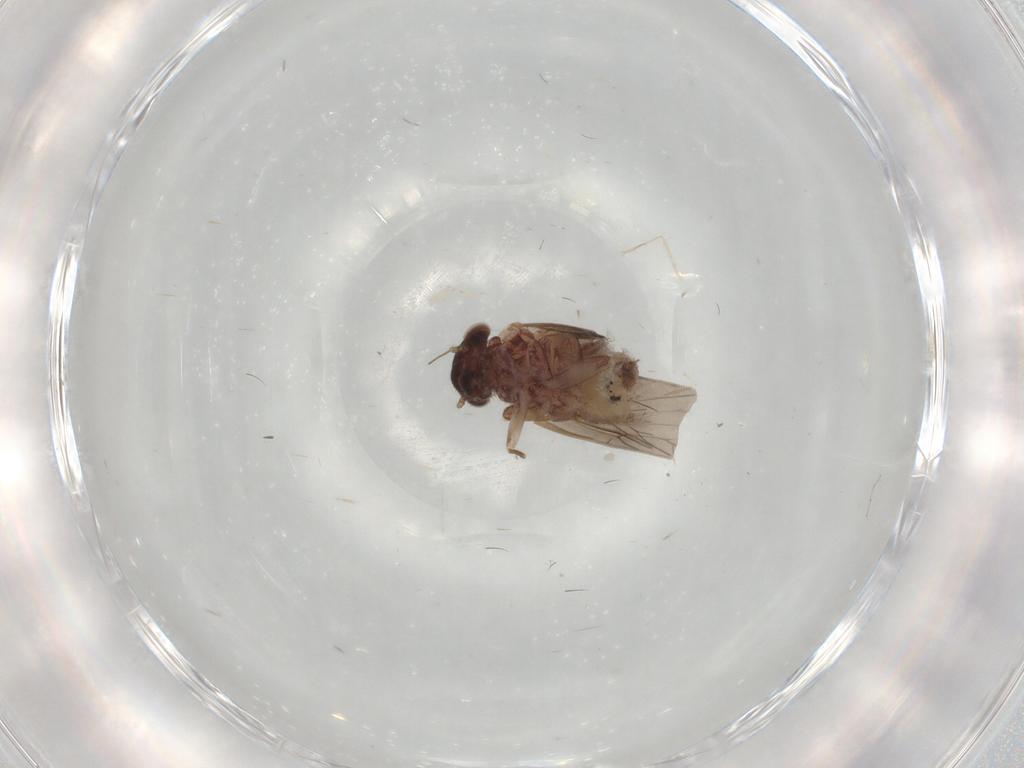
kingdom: Animalia
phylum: Arthropoda
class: Insecta
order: Psocodea
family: Lepidopsocidae
